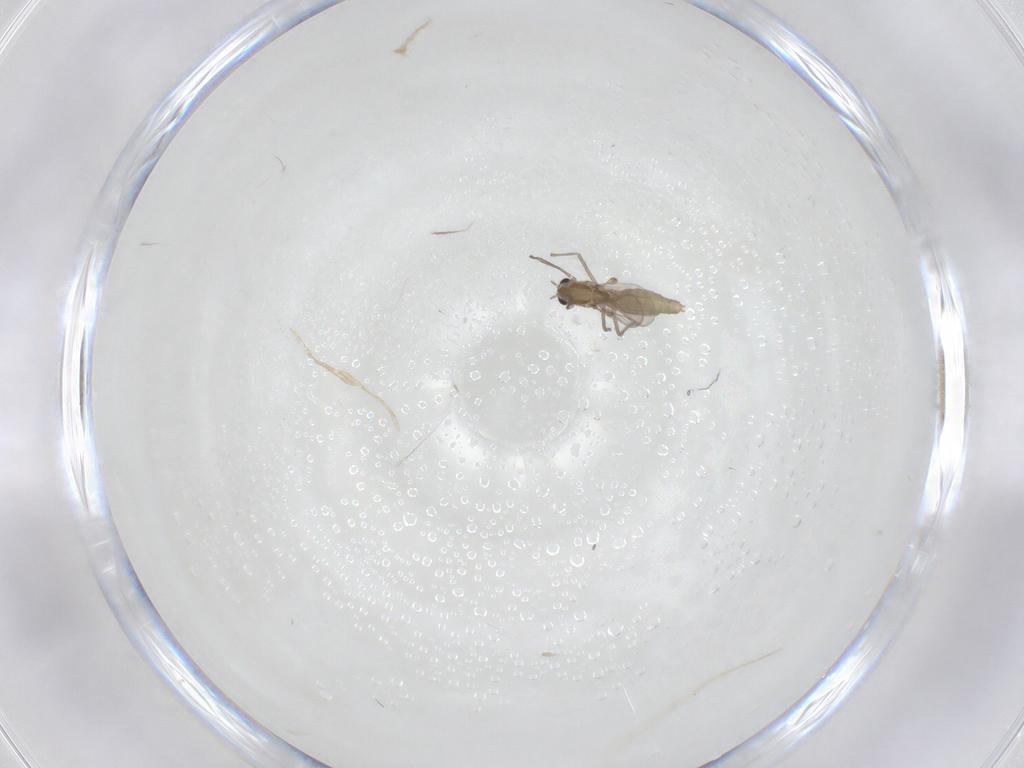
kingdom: Animalia
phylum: Arthropoda
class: Insecta
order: Diptera
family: Chironomidae
